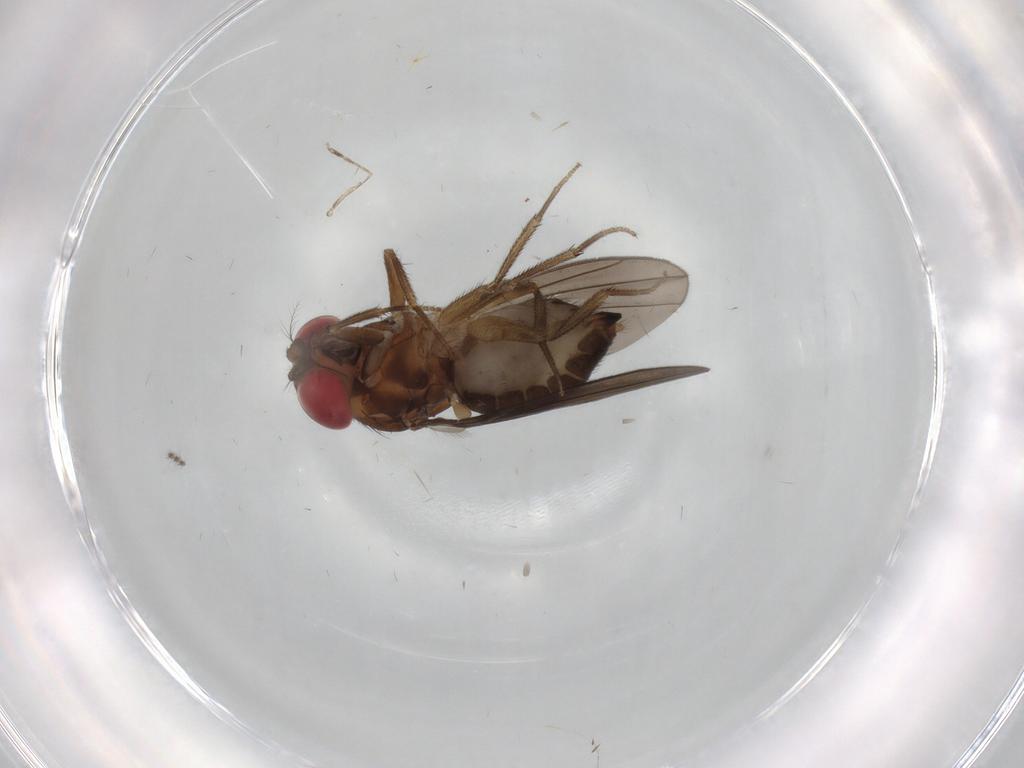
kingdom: Animalia
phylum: Arthropoda
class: Insecta
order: Diptera
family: Drosophilidae
